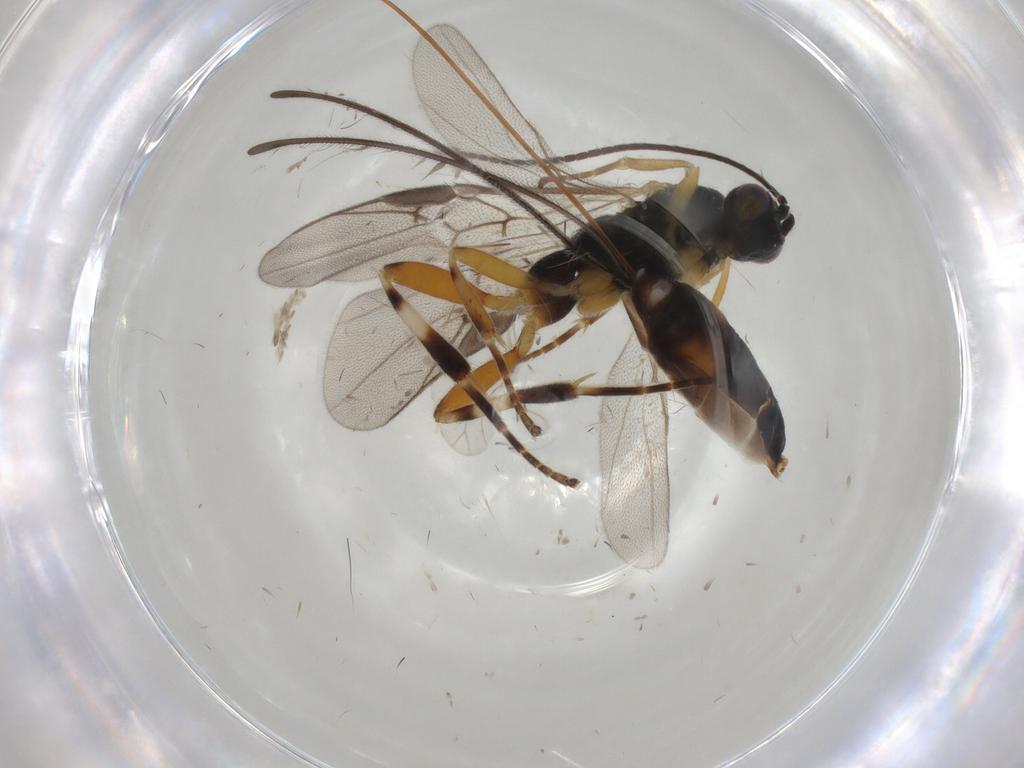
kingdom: Animalia
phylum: Arthropoda
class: Insecta
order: Hymenoptera
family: Braconidae
